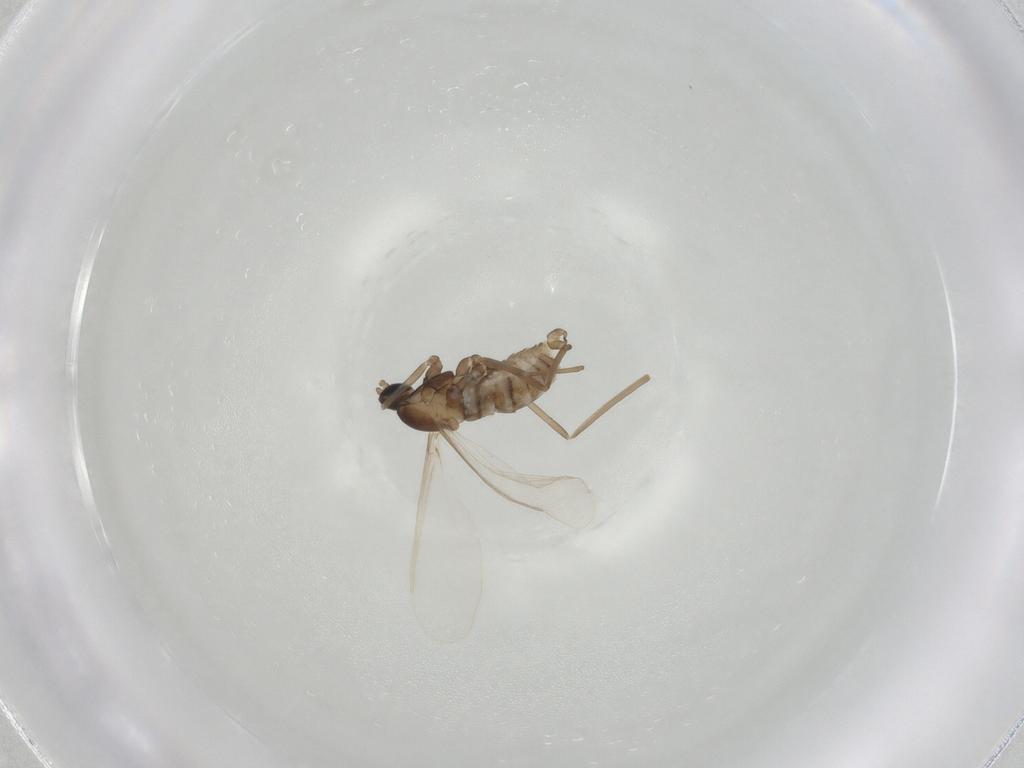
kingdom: Animalia
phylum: Arthropoda
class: Insecta
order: Diptera
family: Cecidomyiidae
